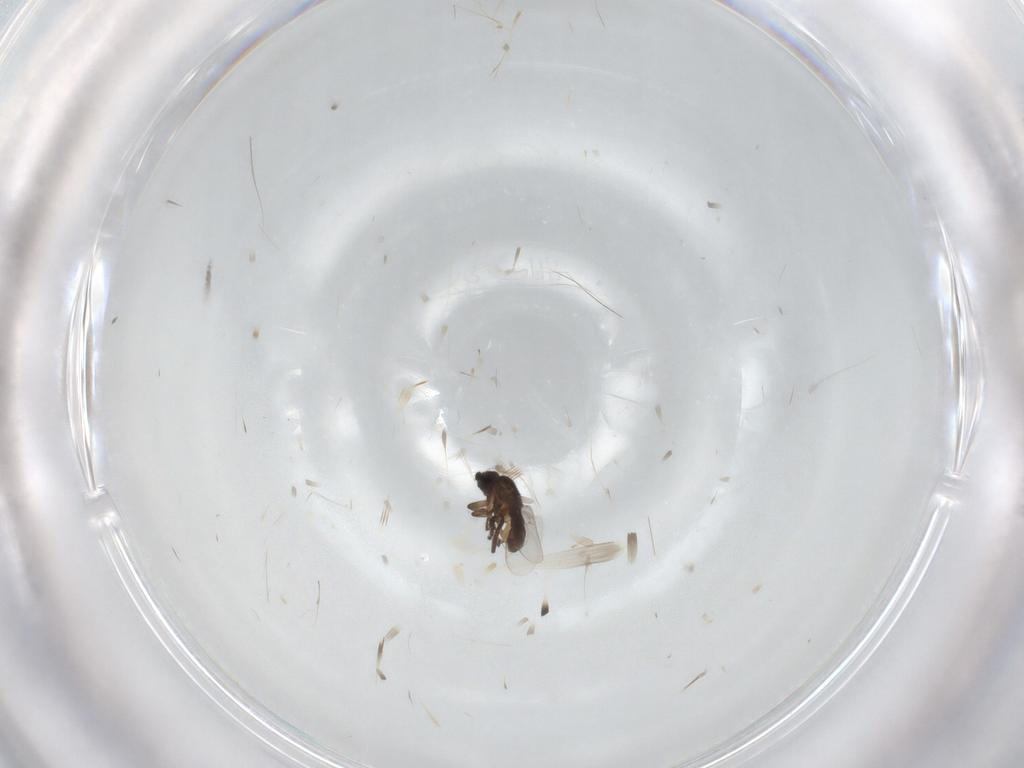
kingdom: Animalia
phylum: Arthropoda
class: Insecta
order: Diptera
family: Sphaeroceridae
